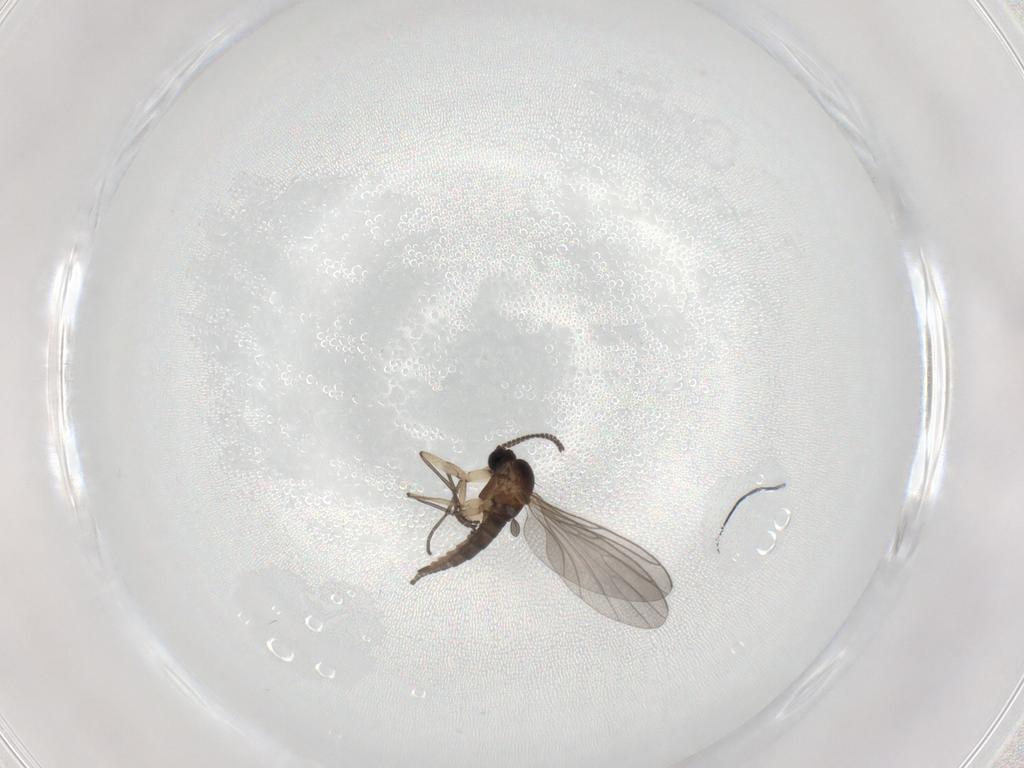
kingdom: Animalia
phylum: Arthropoda
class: Insecta
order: Diptera
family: Sciaridae
